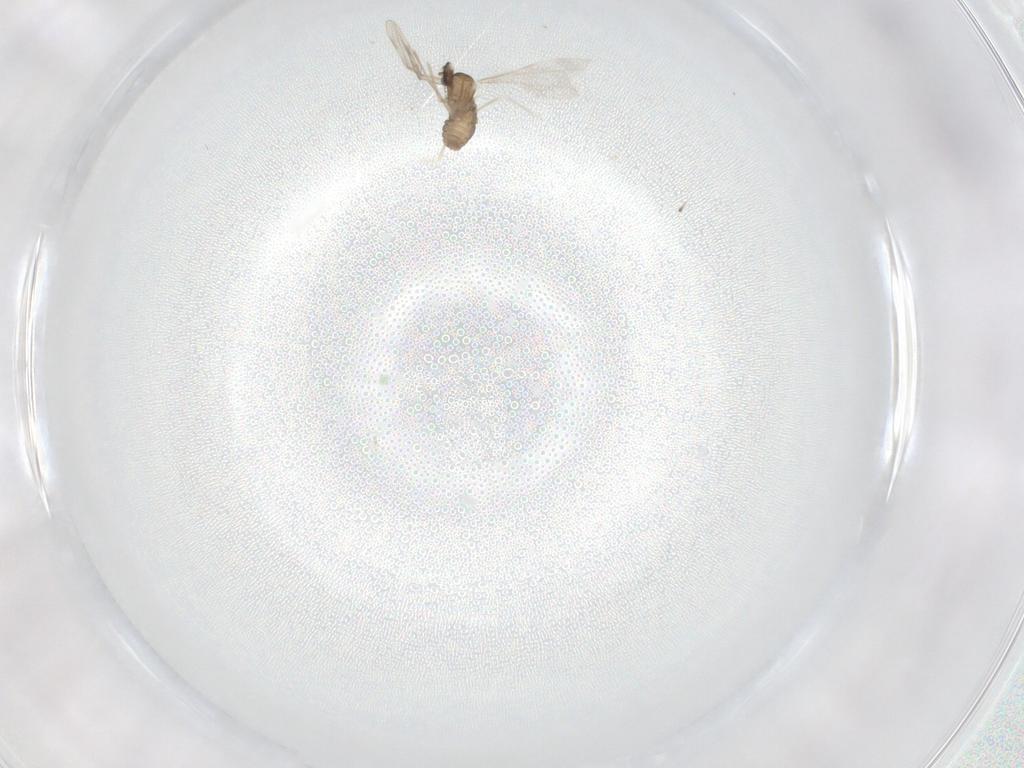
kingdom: Animalia
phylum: Arthropoda
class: Insecta
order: Diptera
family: Cecidomyiidae
